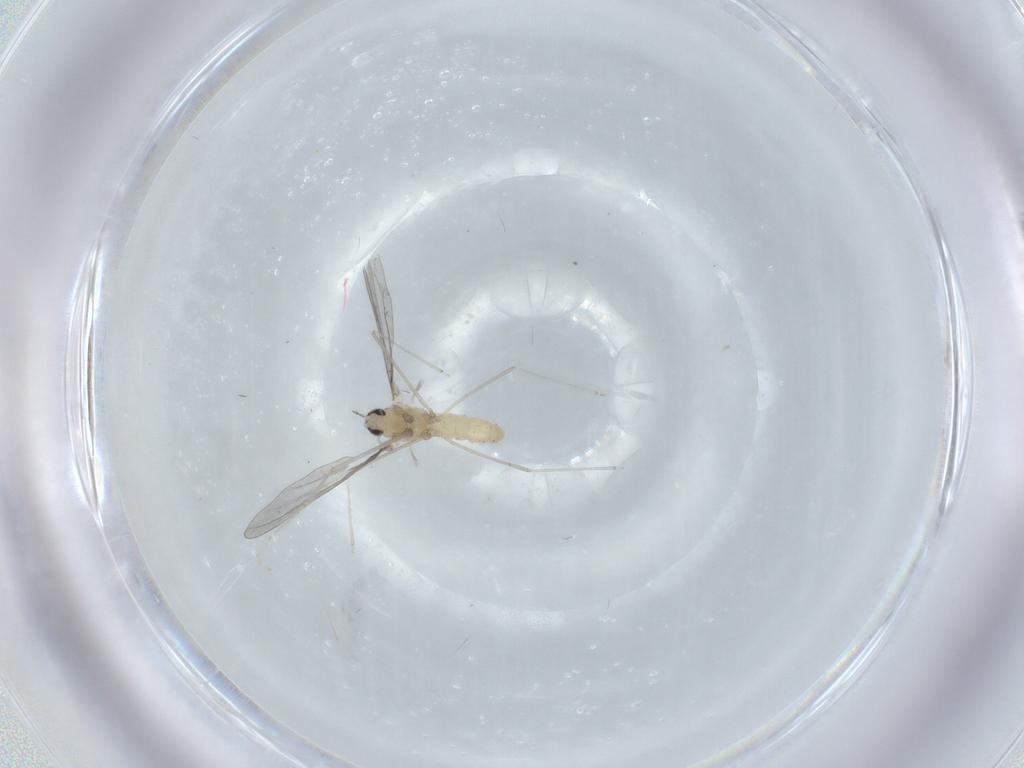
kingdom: Animalia
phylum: Arthropoda
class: Insecta
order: Diptera
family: Cecidomyiidae
